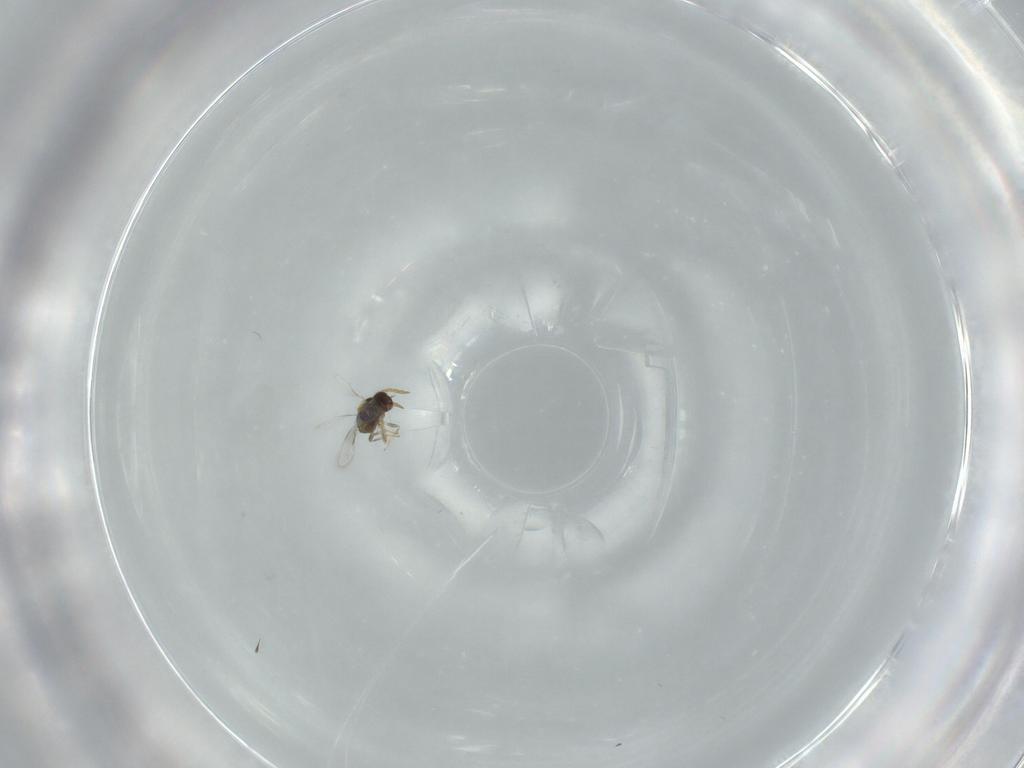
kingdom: Animalia
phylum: Arthropoda
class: Insecta
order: Hymenoptera
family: Aphelinidae
